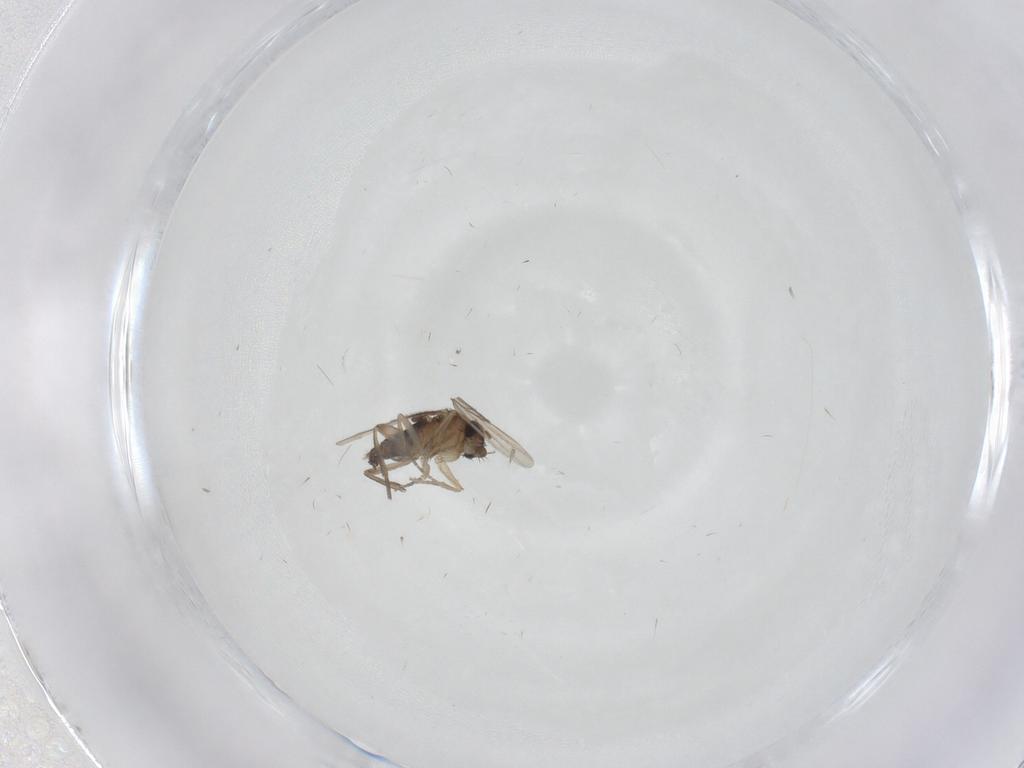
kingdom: Animalia
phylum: Arthropoda
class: Insecta
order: Diptera
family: Phoridae
